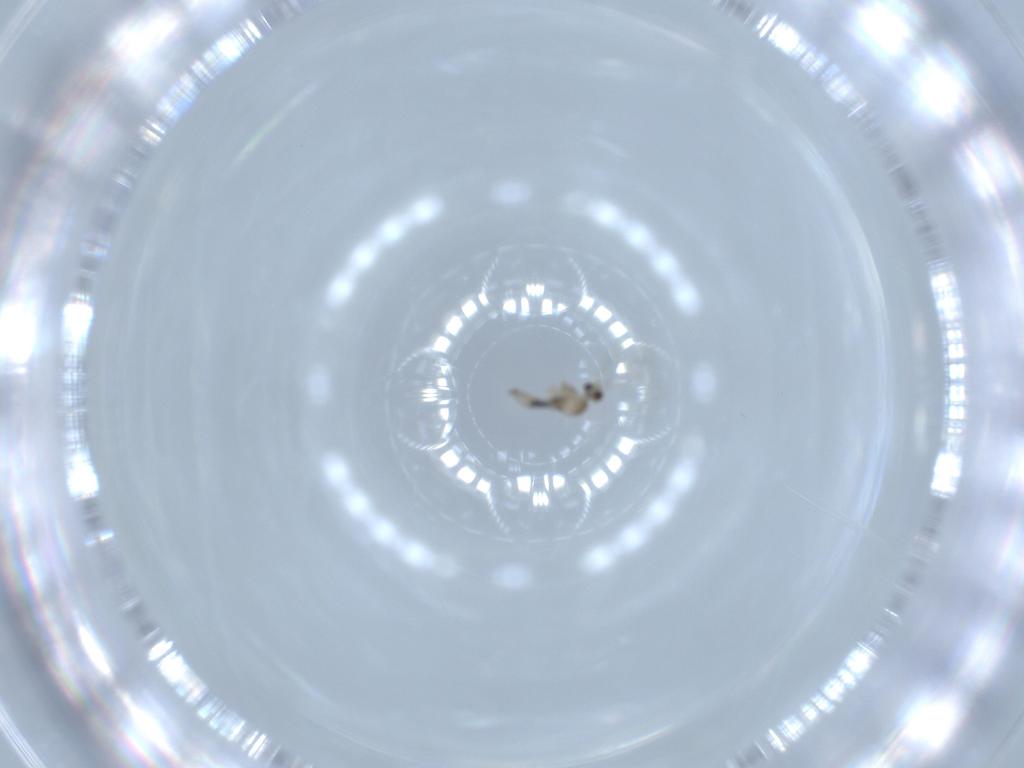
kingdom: Animalia
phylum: Arthropoda
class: Insecta
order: Diptera
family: Cecidomyiidae
